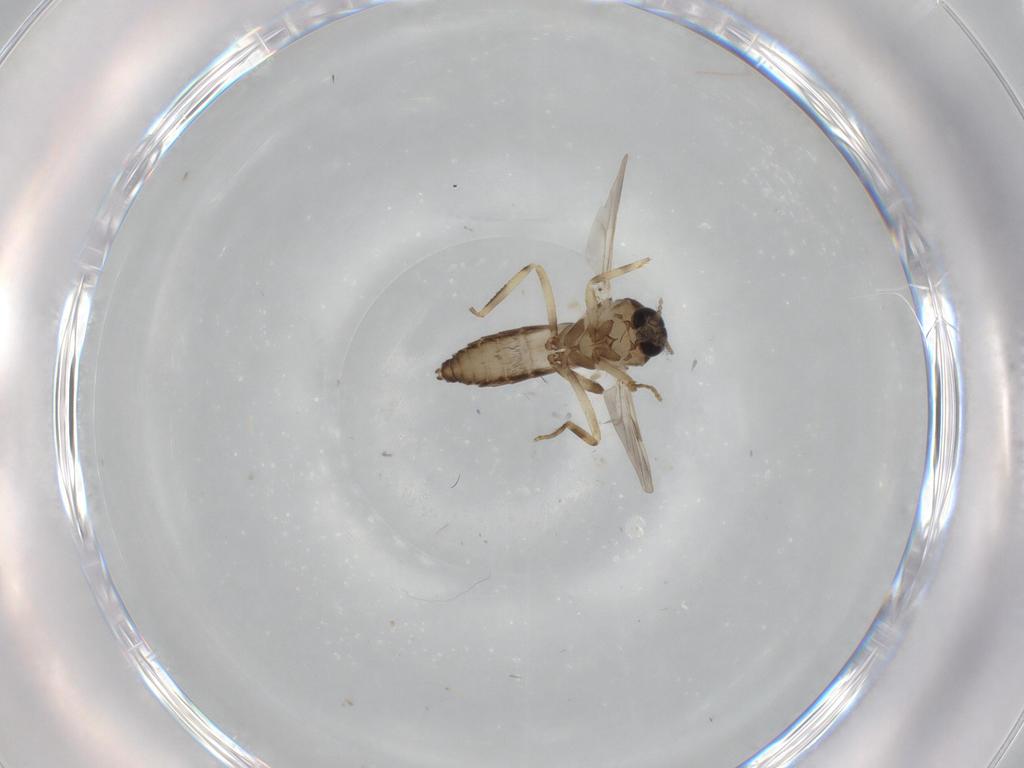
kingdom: Animalia
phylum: Arthropoda
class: Insecta
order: Diptera
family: Ceratopogonidae
